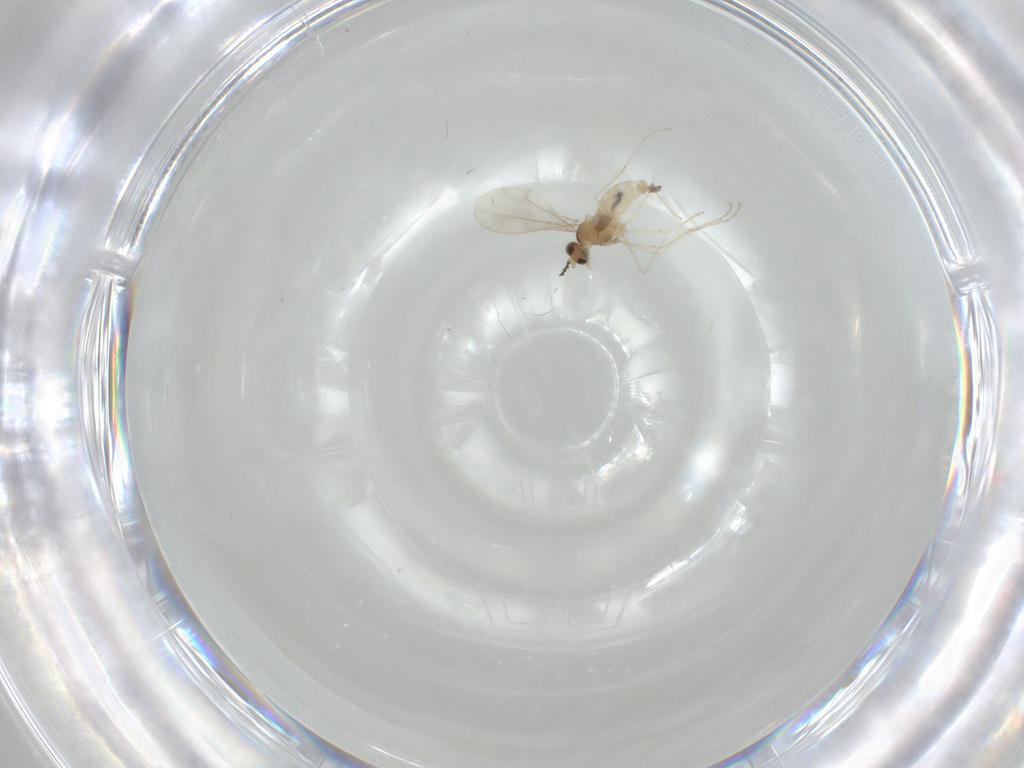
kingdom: Animalia
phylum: Arthropoda
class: Insecta
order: Diptera
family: Cecidomyiidae
